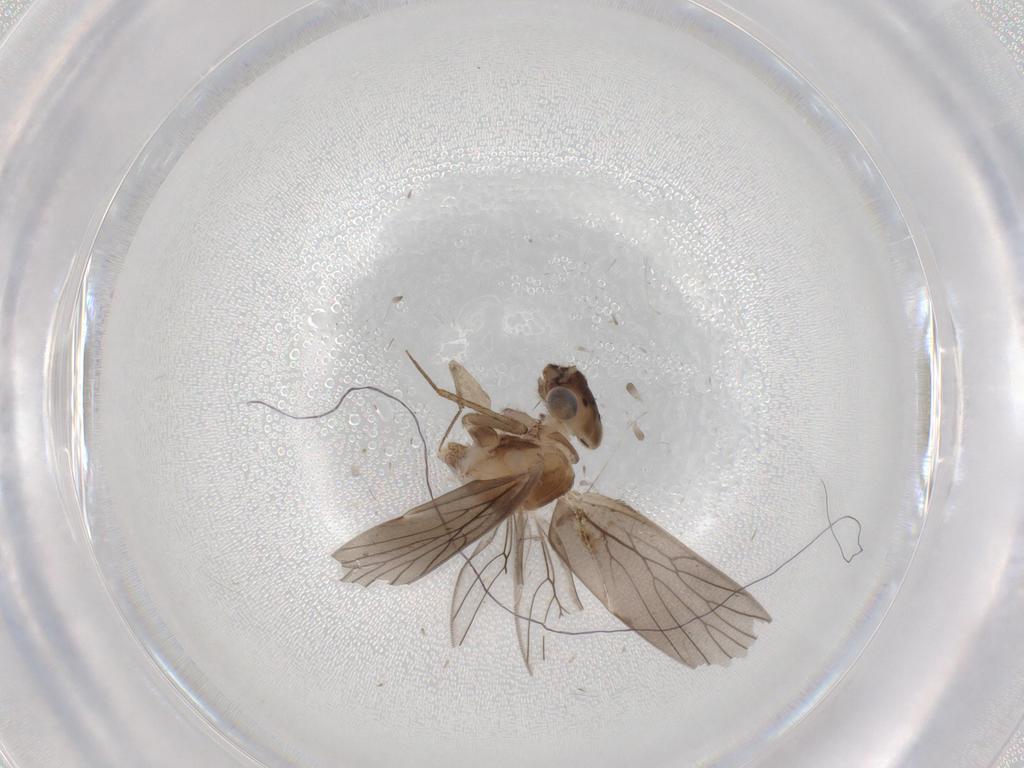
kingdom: Animalia
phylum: Arthropoda
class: Insecta
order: Psocodea
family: Lepidopsocidae
